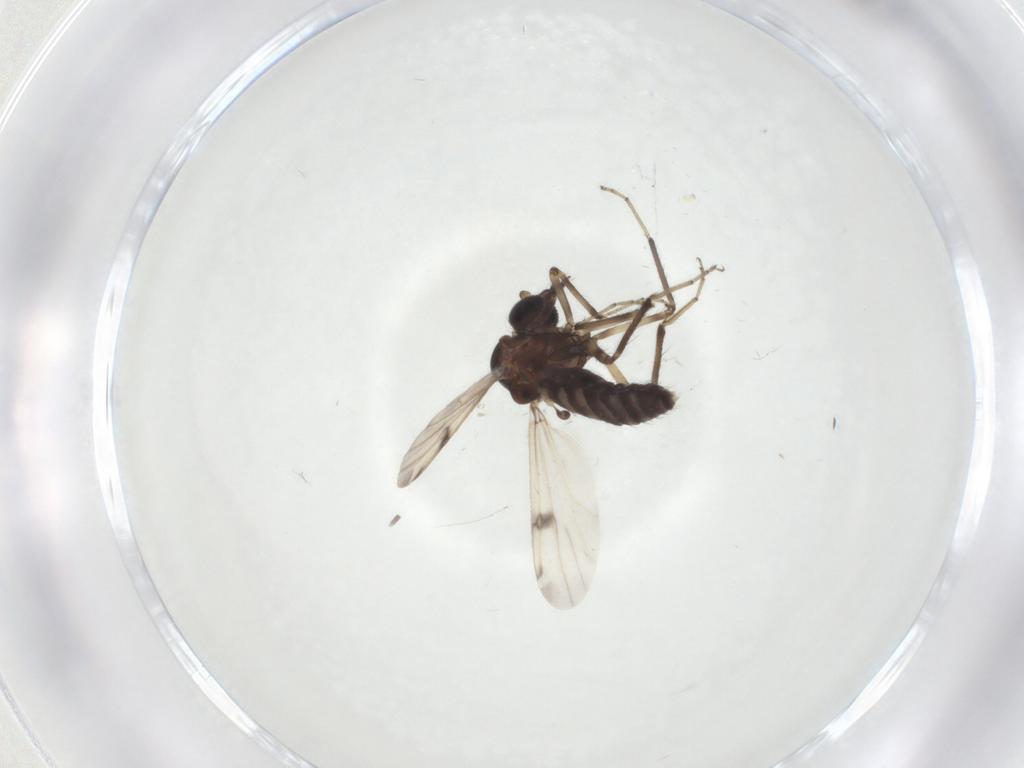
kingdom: Animalia
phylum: Arthropoda
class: Insecta
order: Diptera
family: Ceratopogonidae
